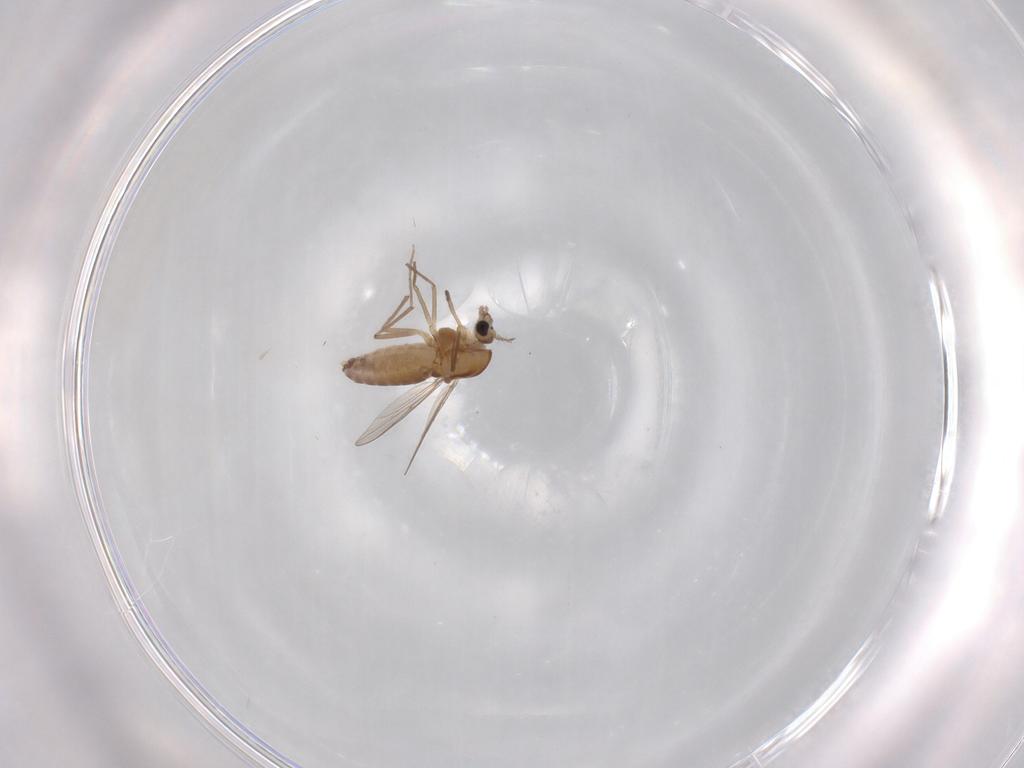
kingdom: Animalia
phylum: Arthropoda
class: Insecta
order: Diptera
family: Chironomidae
